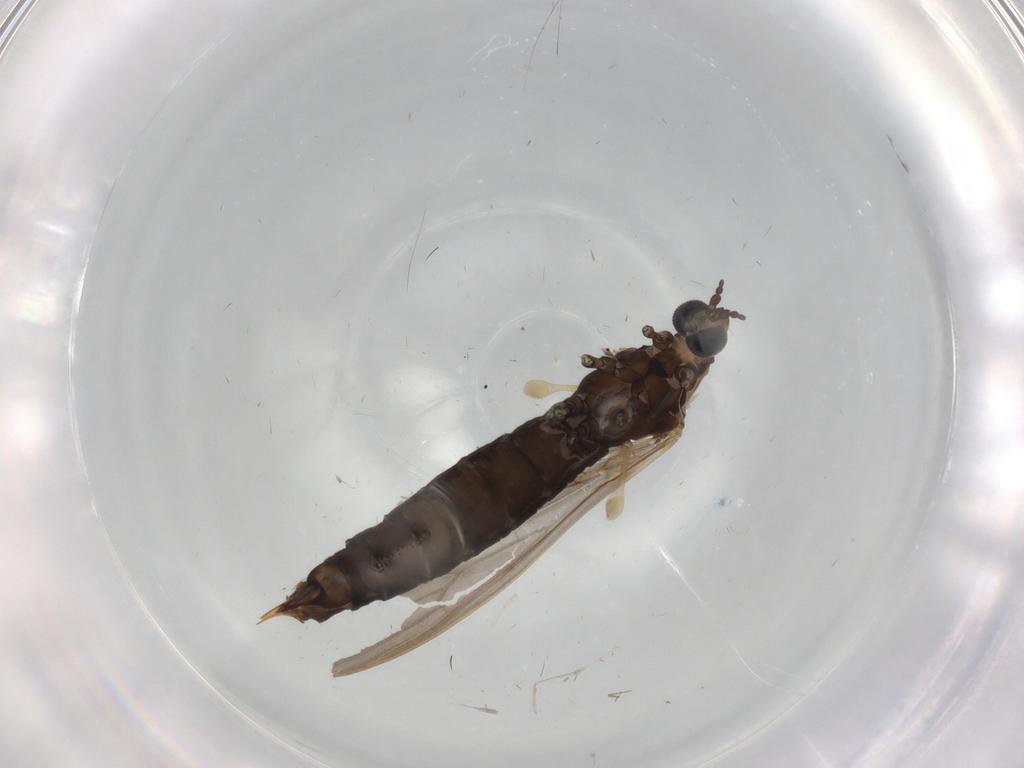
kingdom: Animalia
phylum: Arthropoda
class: Insecta
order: Diptera
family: Limoniidae
